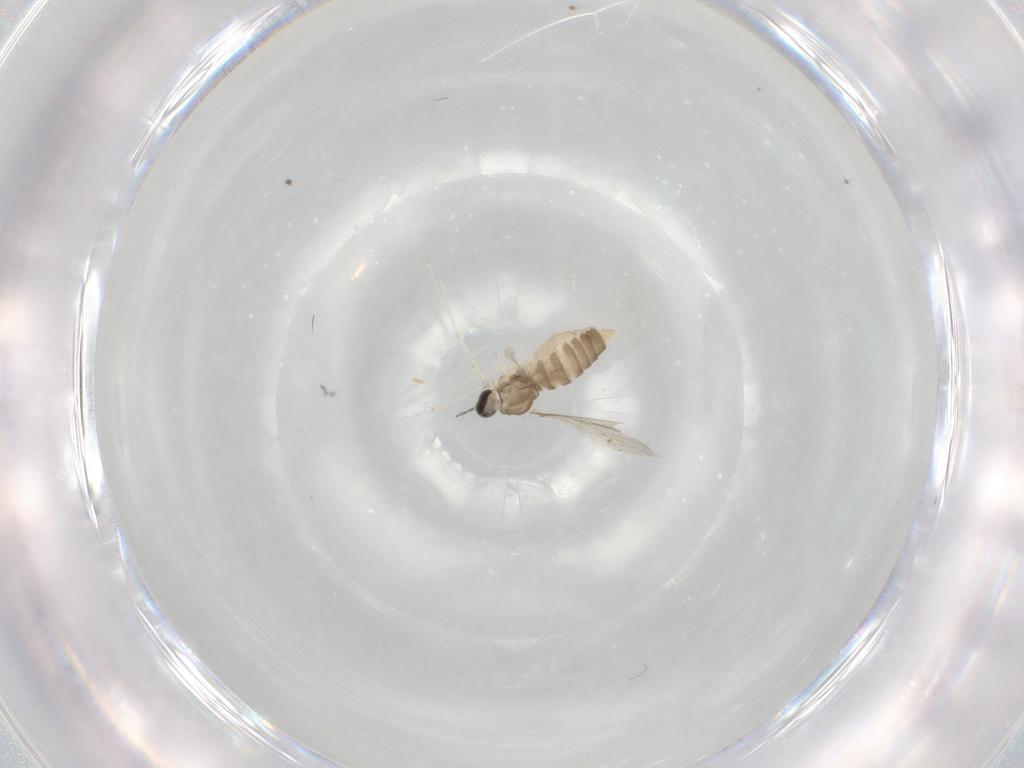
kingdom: Animalia
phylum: Arthropoda
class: Insecta
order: Diptera
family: Cecidomyiidae
